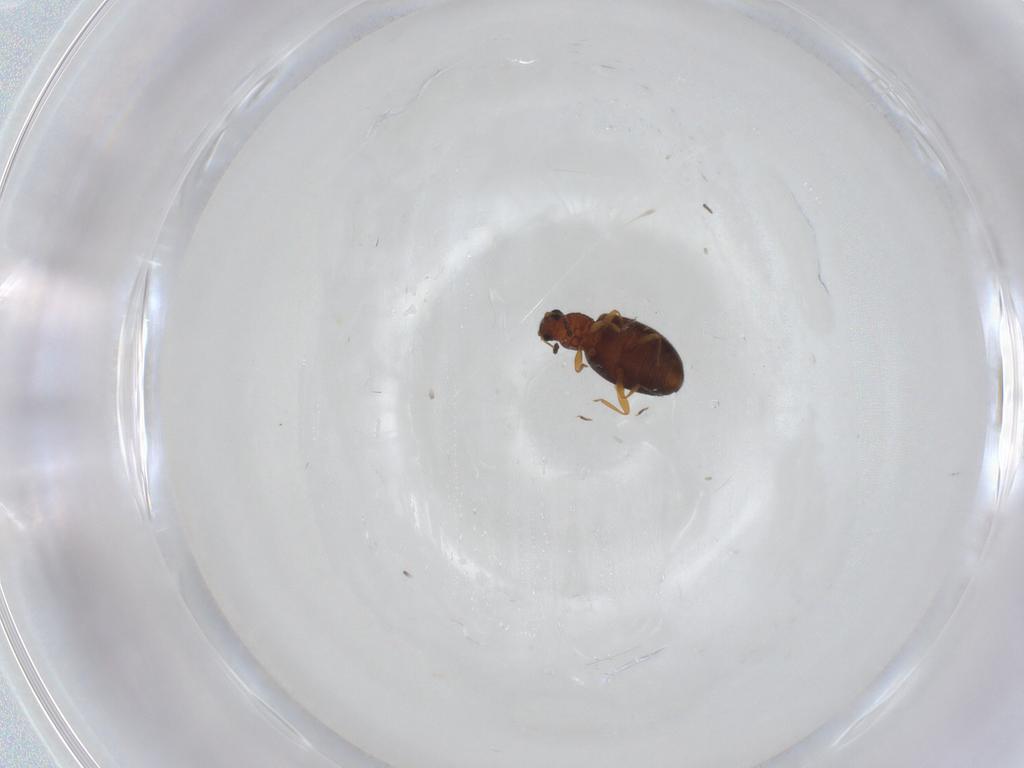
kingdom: Animalia
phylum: Arthropoda
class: Insecta
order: Coleoptera
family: Latridiidae
